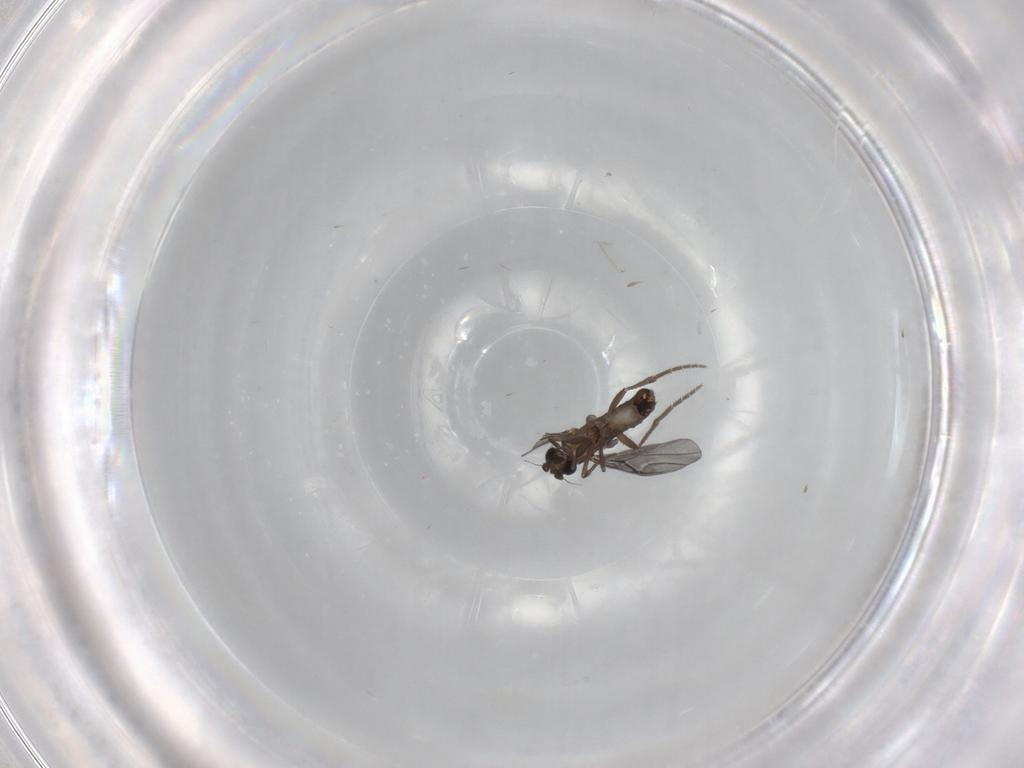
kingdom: Animalia
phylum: Arthropoda
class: Insecta
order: Diptera
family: Phoridae
